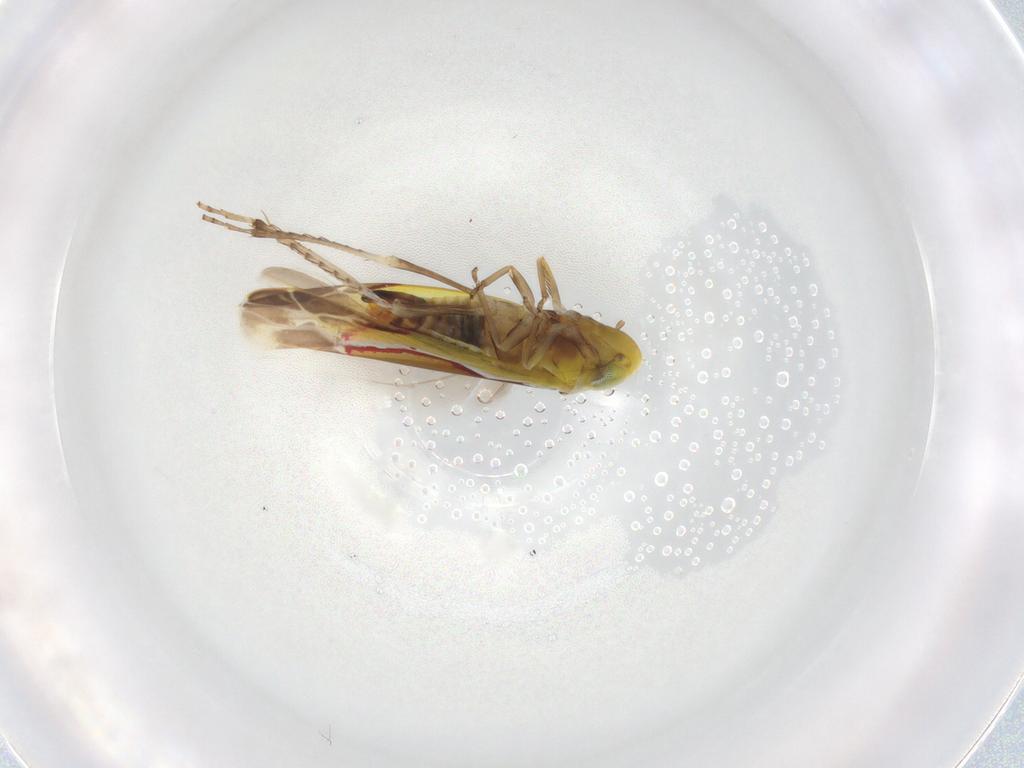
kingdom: Animalia
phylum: Arthropoda
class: Insecta
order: Hemiptera
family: Cicadellidae
